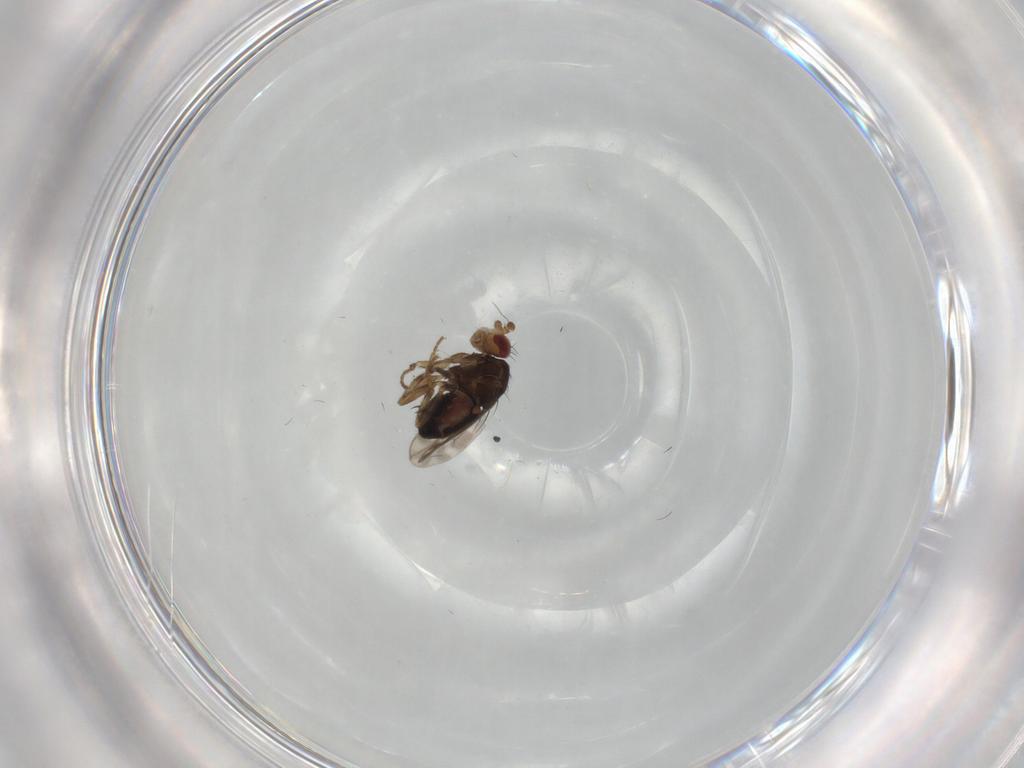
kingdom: Animalia
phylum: Arthropoda
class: Insecta
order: Diptera
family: Sphaeroceridae
